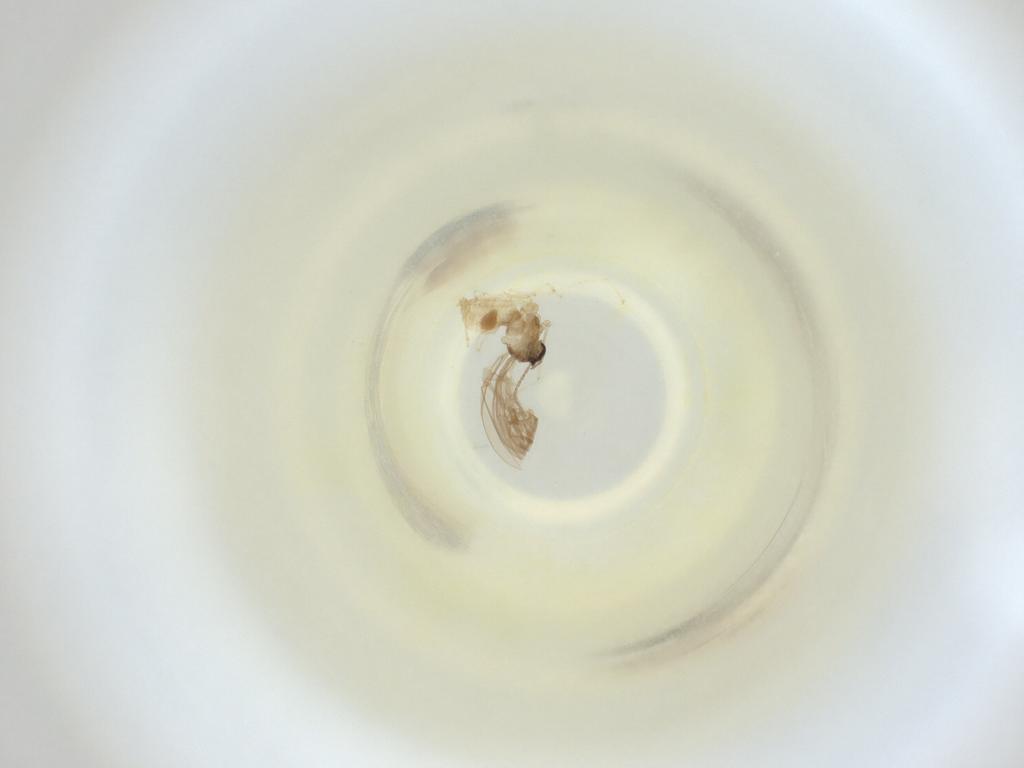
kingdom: Animalia
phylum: Arthropoda
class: Insecta
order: Diptera
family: Cecidomyiidae
